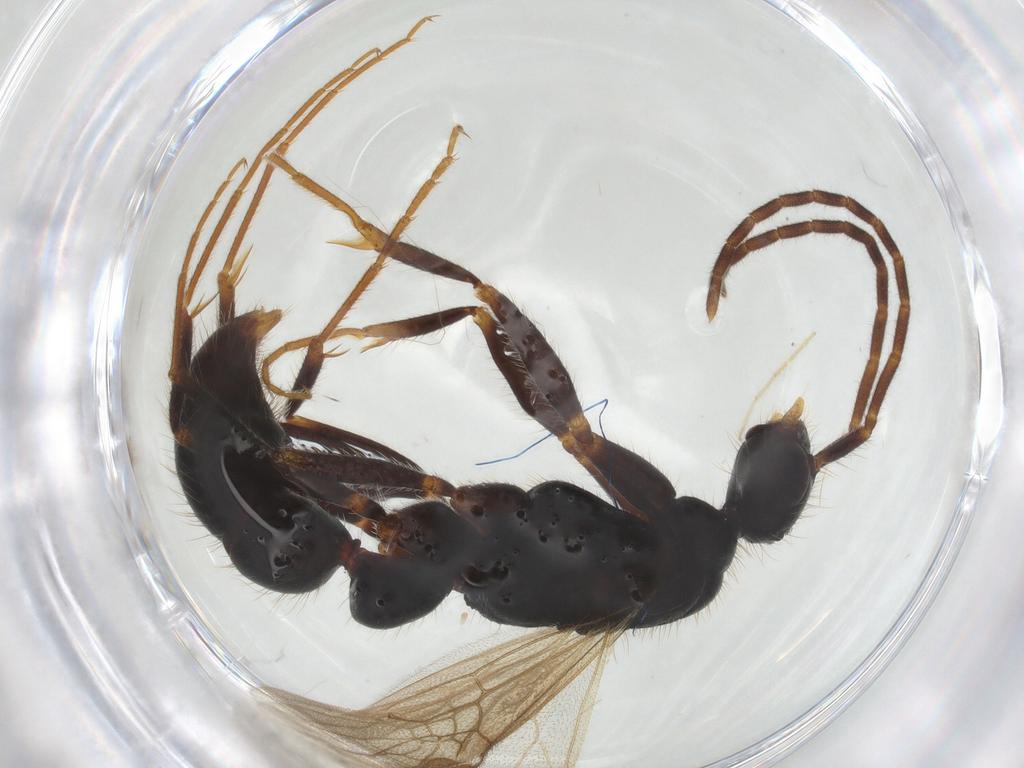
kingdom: Animalia
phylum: Arthropoda
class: Insecta
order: Hymenoptera
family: Formicidae
